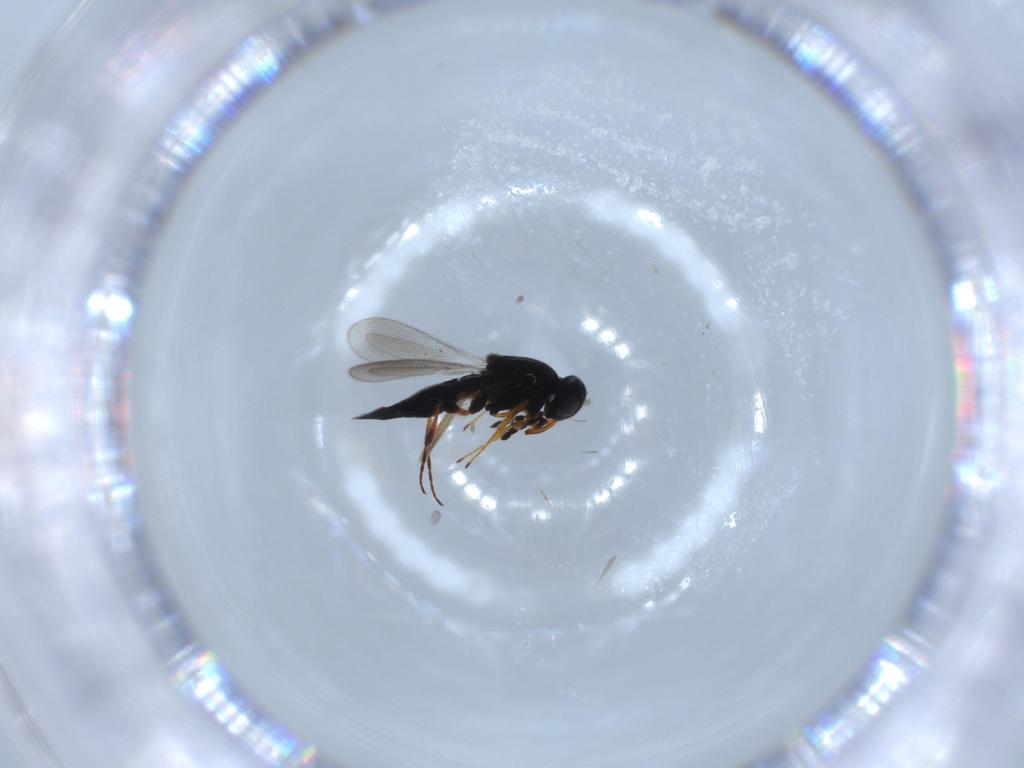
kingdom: Animalia
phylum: Arthropoda
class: Insecta
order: Hymenoptera
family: Platygastridae
